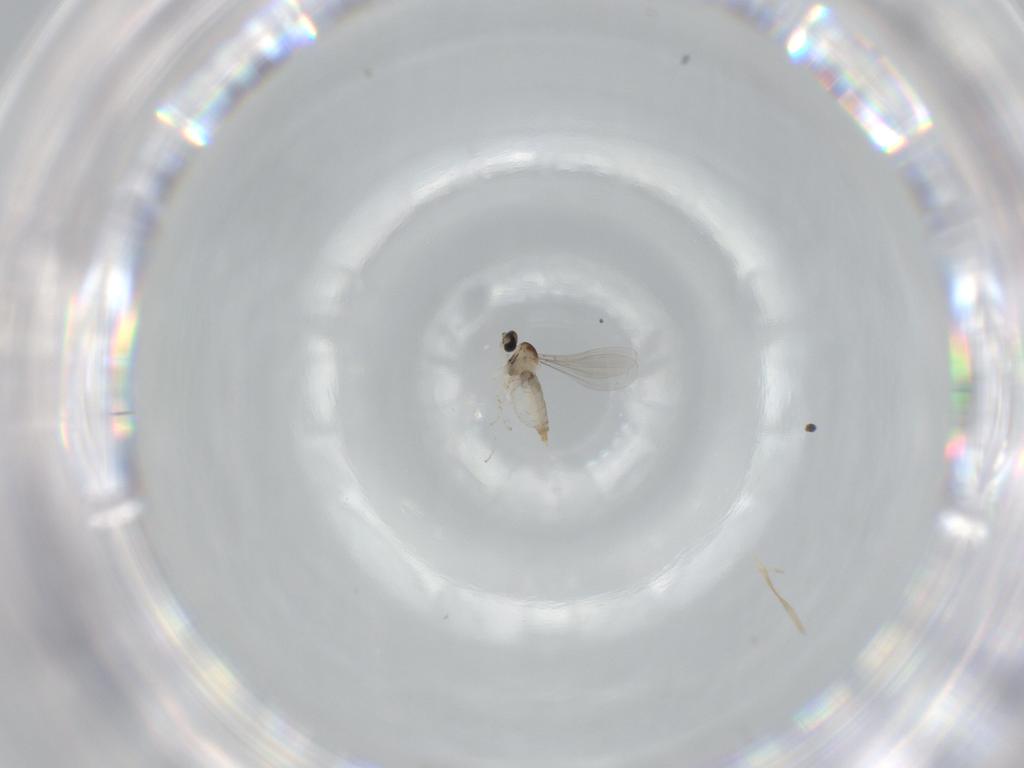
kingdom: Animalia
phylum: Arthropoda
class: Insecta
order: Diptera
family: Sciaridae
